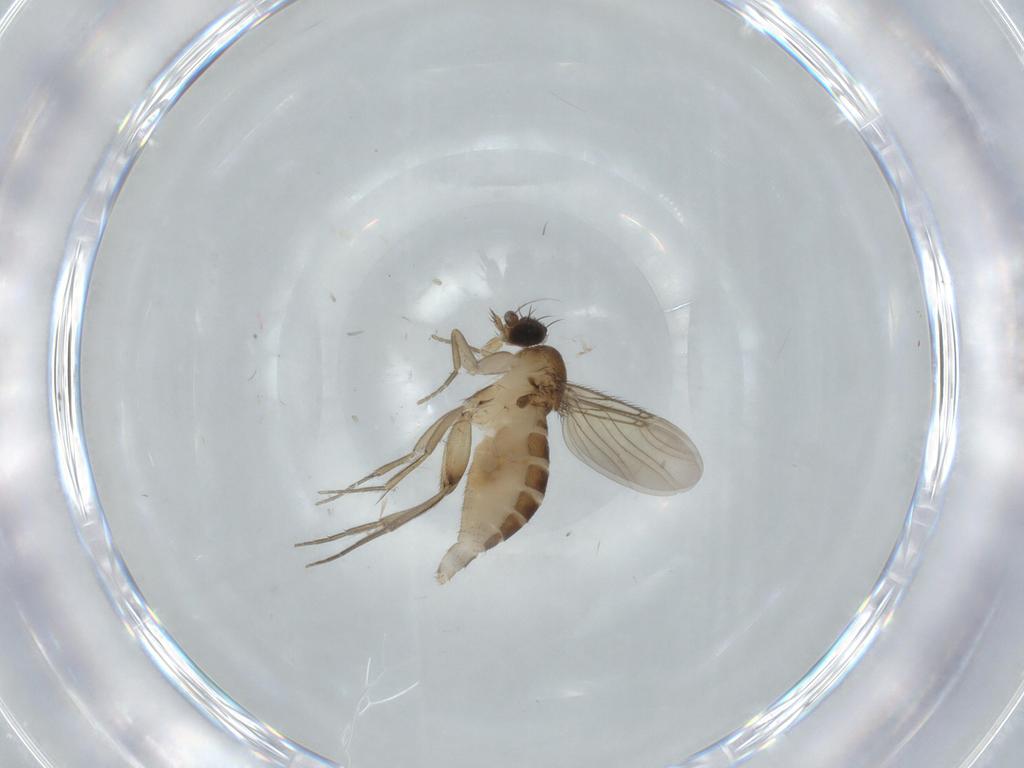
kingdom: Animalia
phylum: Arthropoda
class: Insecta
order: Diptera
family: Phoridae
